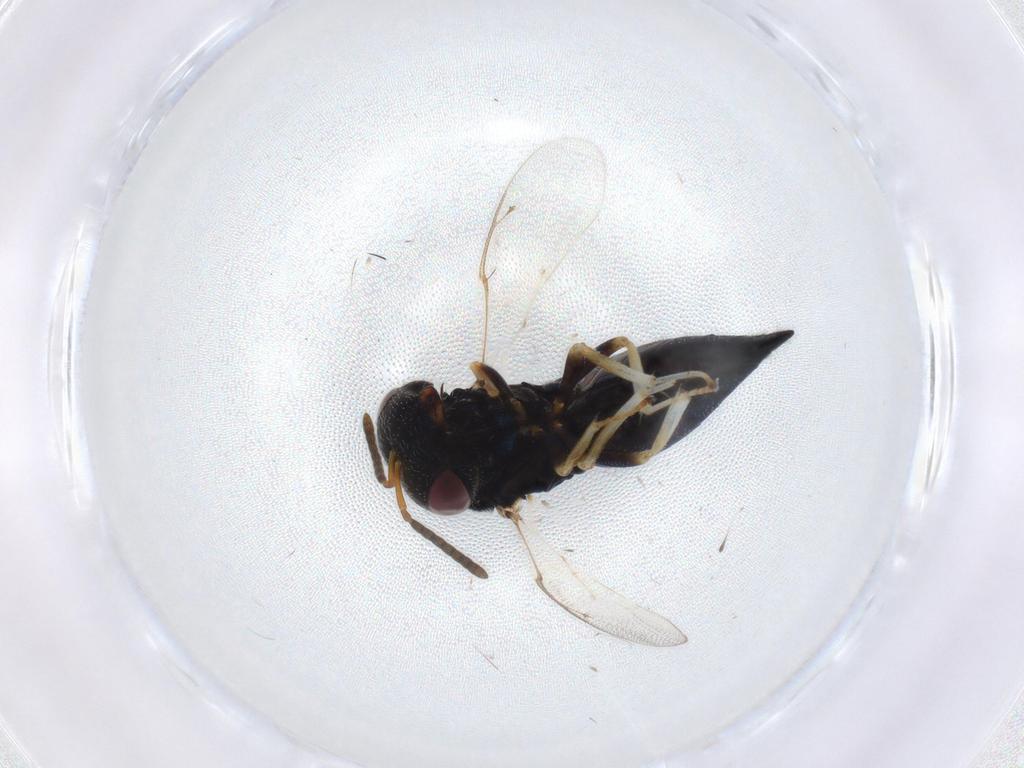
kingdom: Animalia
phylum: Arthropoda
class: Insecta
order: Hymenoptera
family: Pteromalidae
